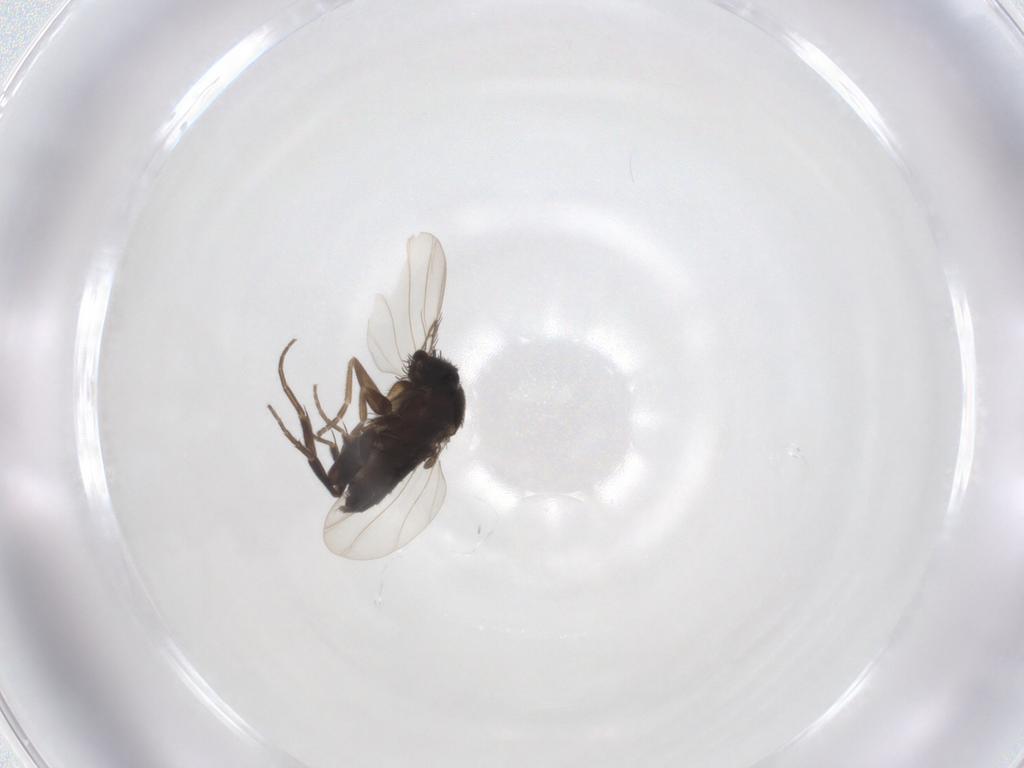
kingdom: Animalia
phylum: Arthropoda
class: Insecta
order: Diptera
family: Phoridae
